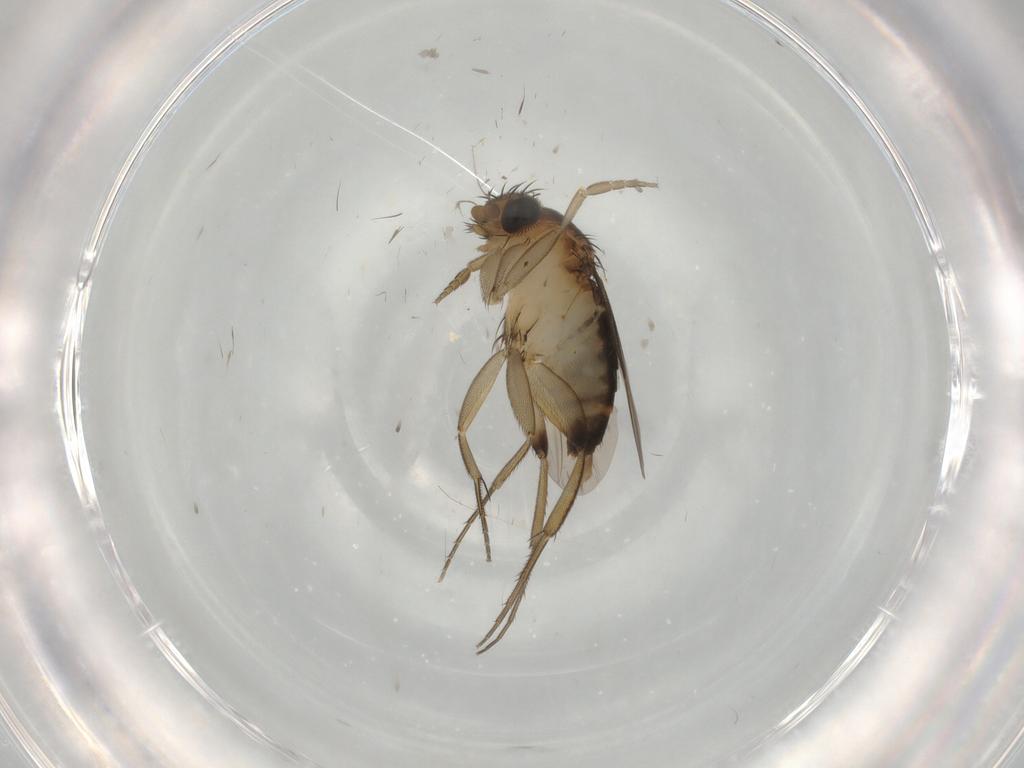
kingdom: Animalia
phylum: Arthropoda
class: Insecta
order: Diptera
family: Phoridae
